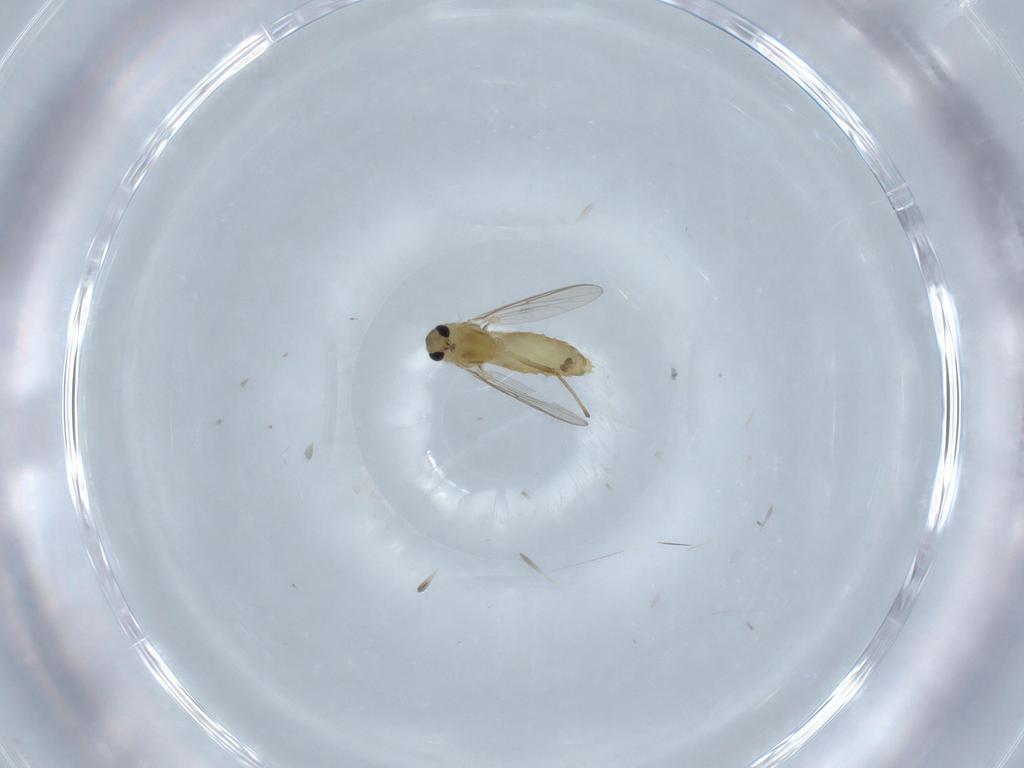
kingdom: Animalia
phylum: Arthropoda
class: Insecta
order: Diptera
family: Chironomidae
